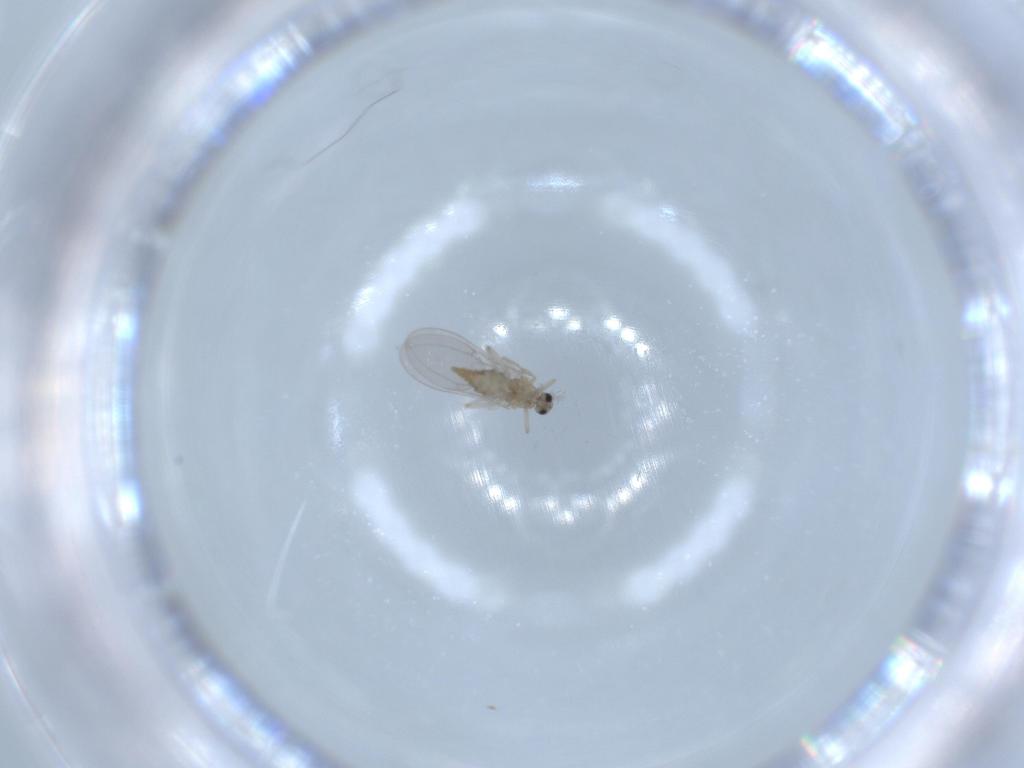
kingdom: Animalia
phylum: Arthropoda
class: Insecta
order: Diptera
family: Cecidomyiidae
